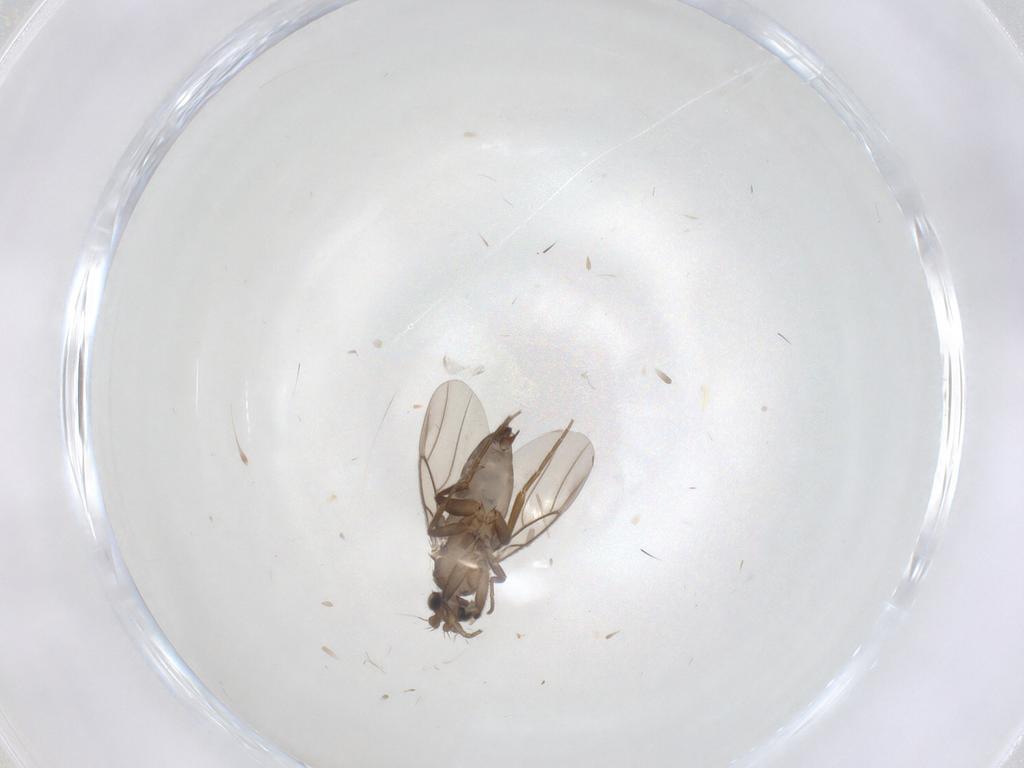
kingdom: Animalia
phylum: Arthropoda
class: Insecta
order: Diptera
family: Phoridae
